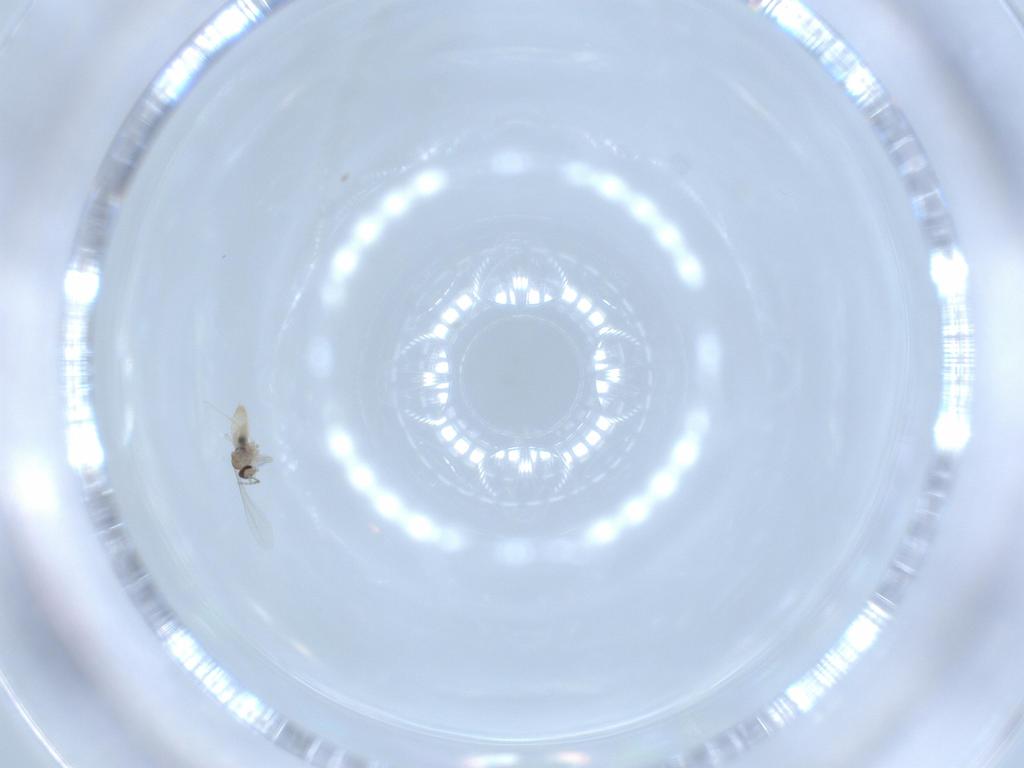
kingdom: Animalia
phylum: Arthropoda
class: Insecta
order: Diptera
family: Cecidomyiidae
